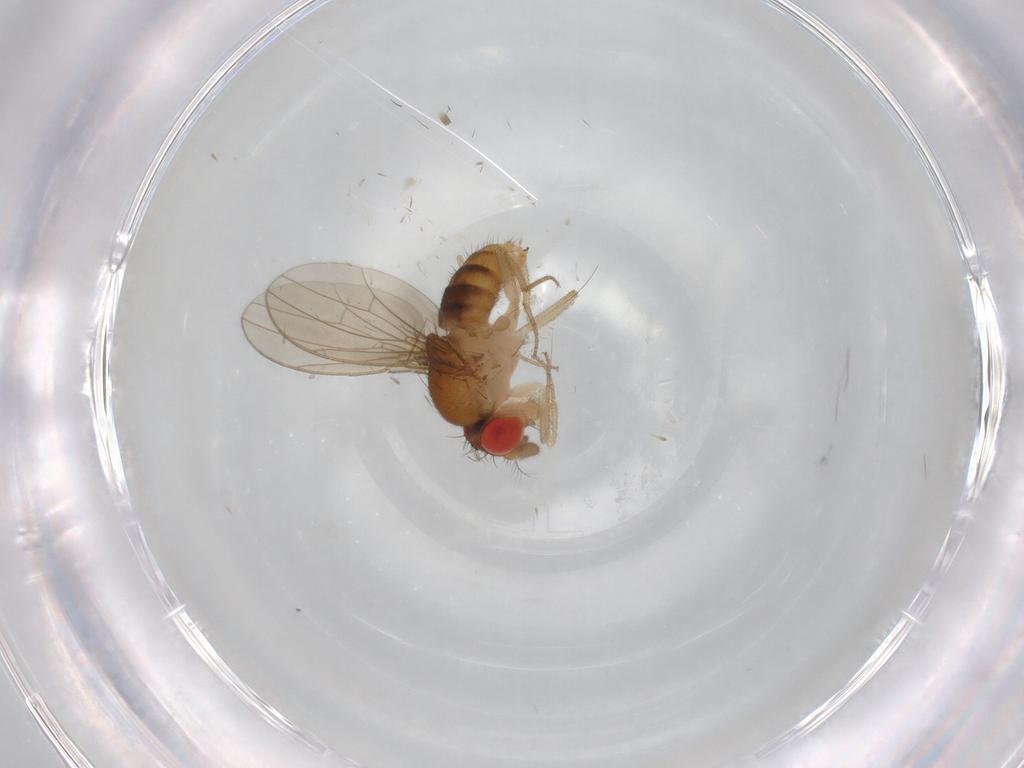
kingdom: Animalia
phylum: Arthropoda
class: Insecta
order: Diptera
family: Drosophilidae
